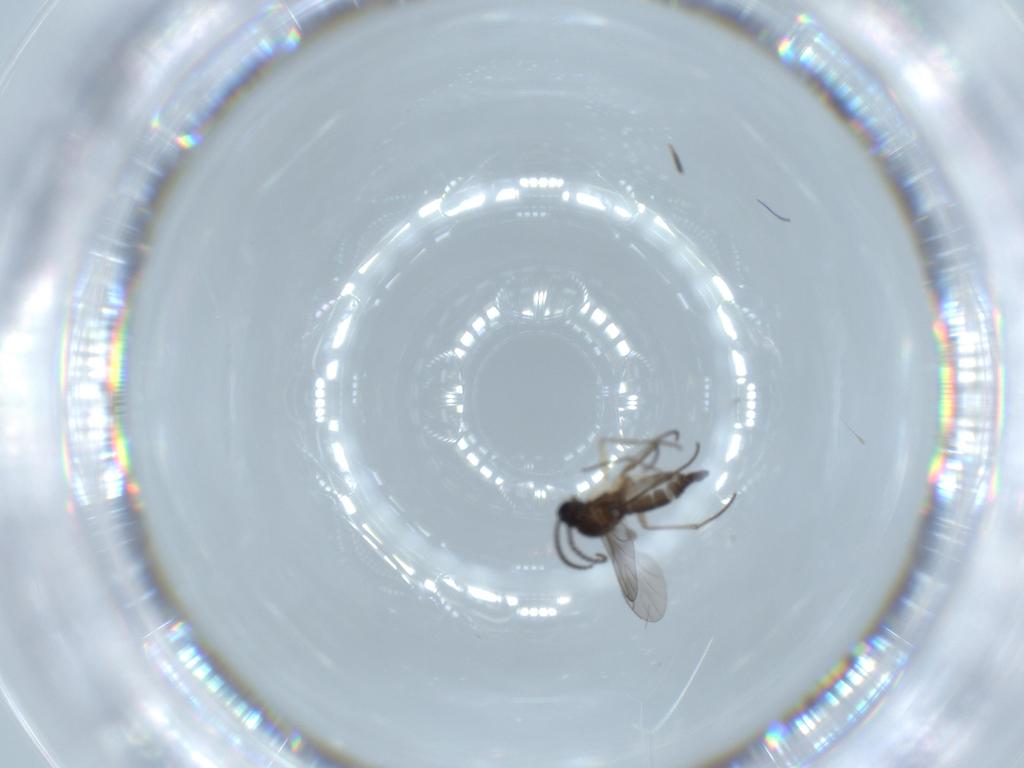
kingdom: Animalia
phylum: Arthropoda
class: Insecta
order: Diptera
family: Sciaridae
